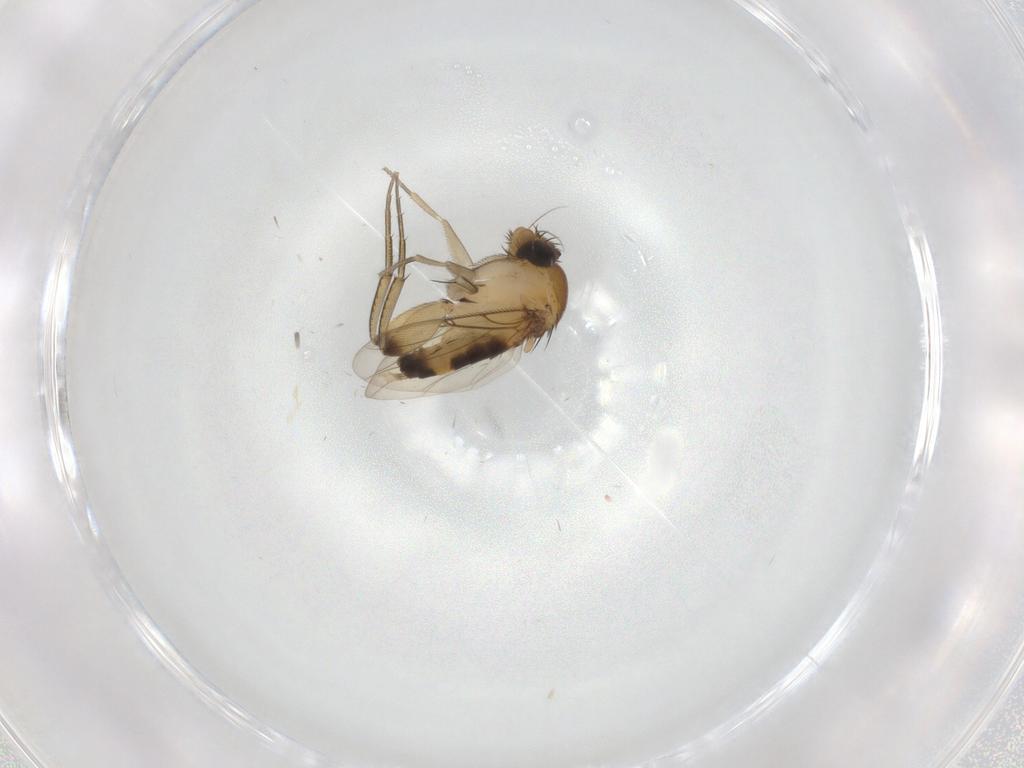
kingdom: Animalia
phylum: Arthropoda
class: Insecta
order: Diptera
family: Phoridae
